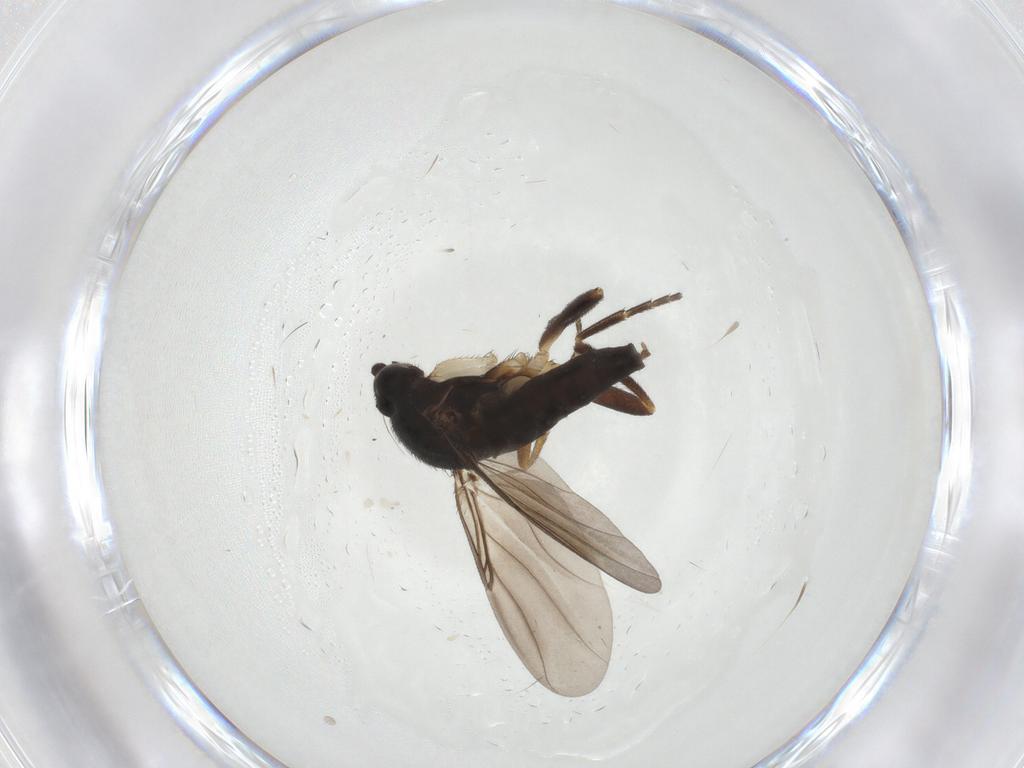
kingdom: Animalia
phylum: Arthropoda
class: Insecta
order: Diptera
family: Phoridae
